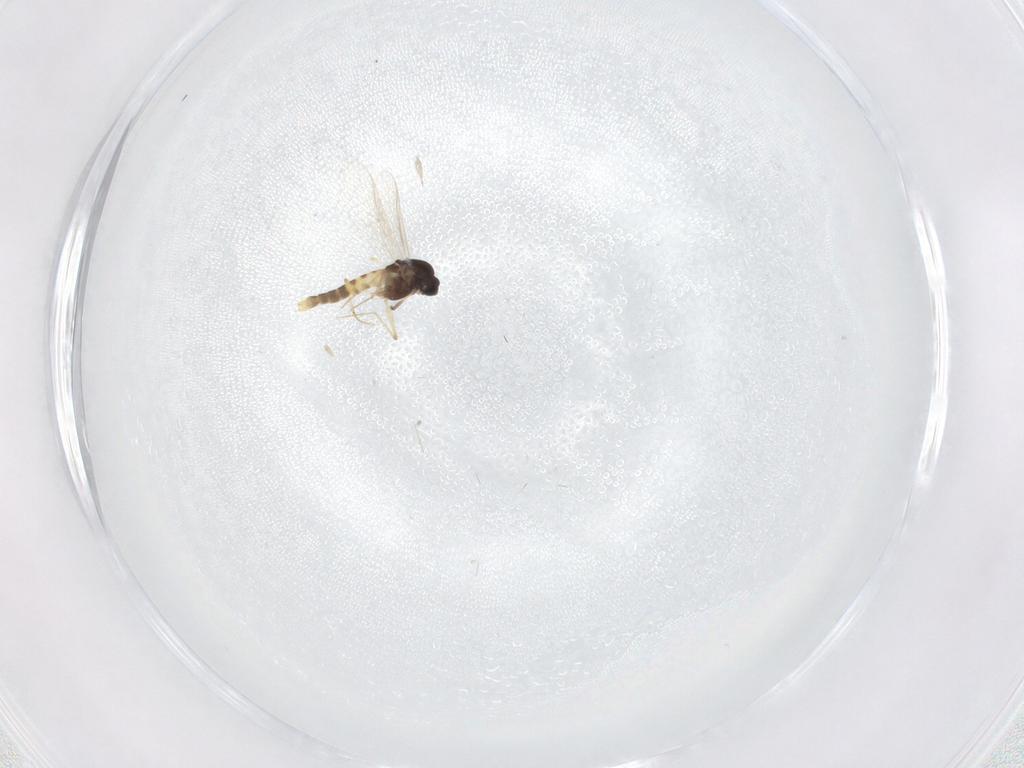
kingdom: Animalia
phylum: Arthropoda
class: Insecta
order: Diptera
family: Chironomidae
